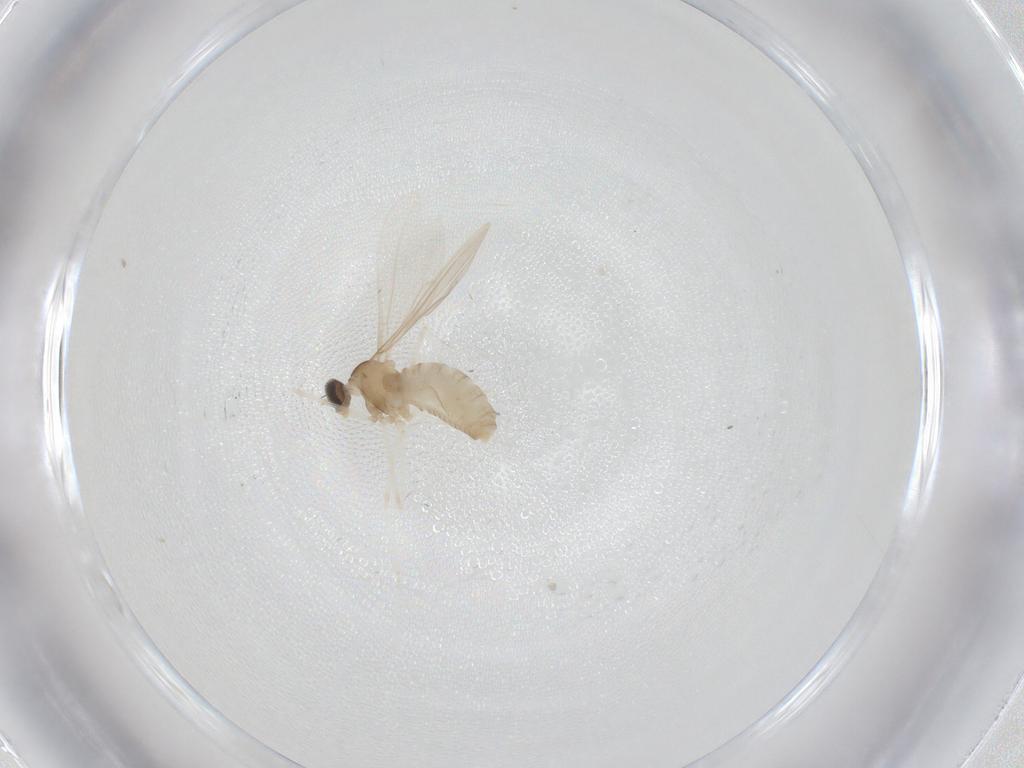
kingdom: Animalia
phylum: Arthropoda
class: Insecta
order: Diptera
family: Cecidomyiidae
